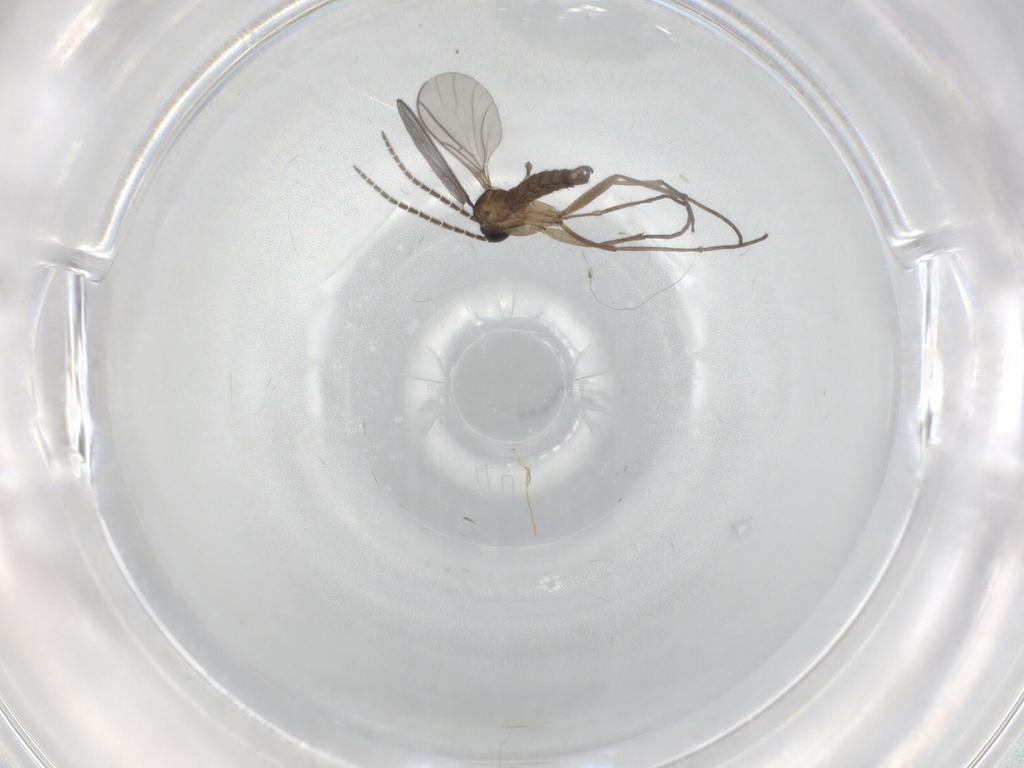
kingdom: Animalia
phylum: Arthropoda
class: Insecta
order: Diptera
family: Sciaridae
